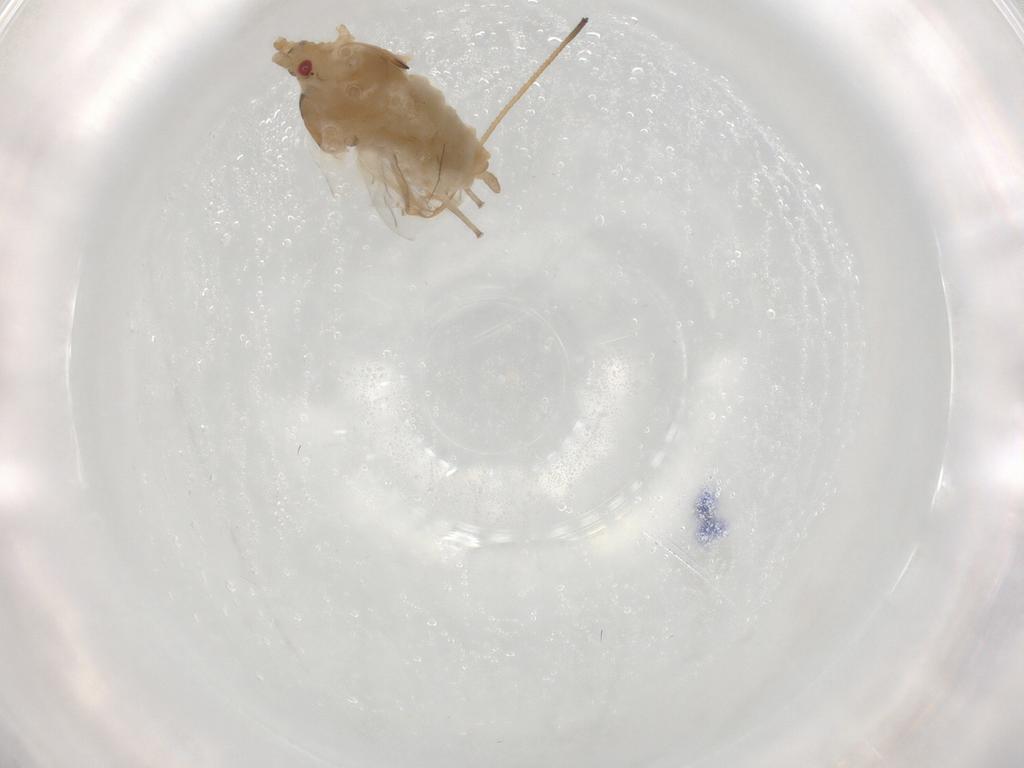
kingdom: Animalia
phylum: Arthropoda
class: Insecta
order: Hemiptera
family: Aphididae
